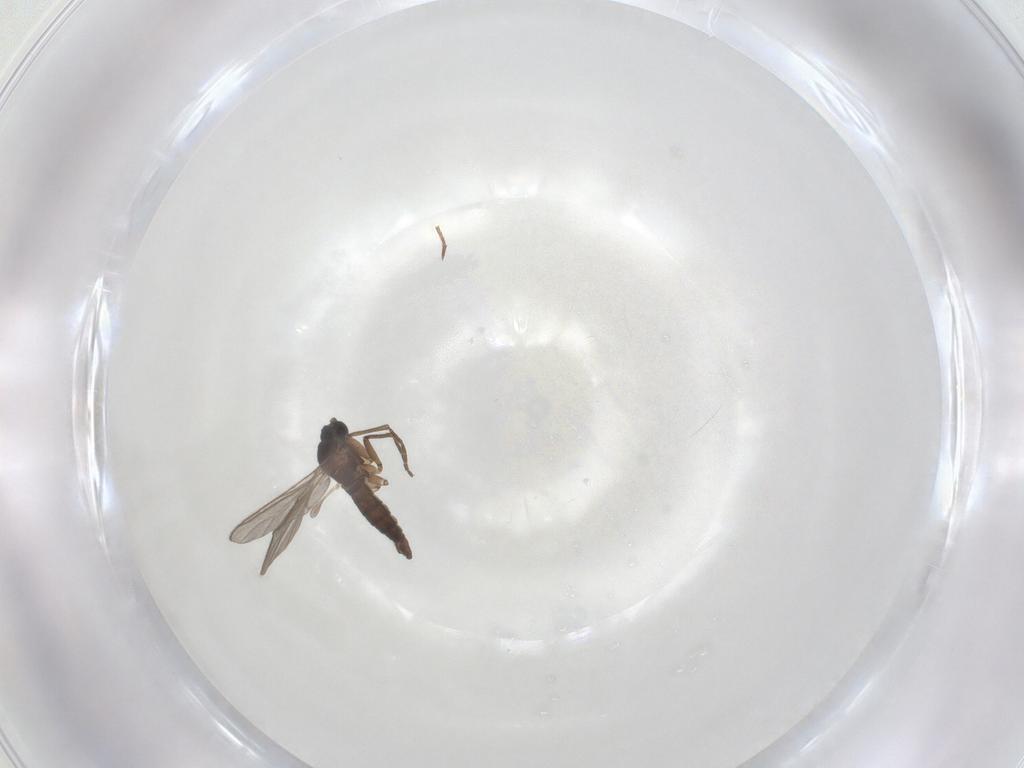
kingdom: Animalia
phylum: Arthropoda
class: Insecta
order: Diptera
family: Sciaridae
